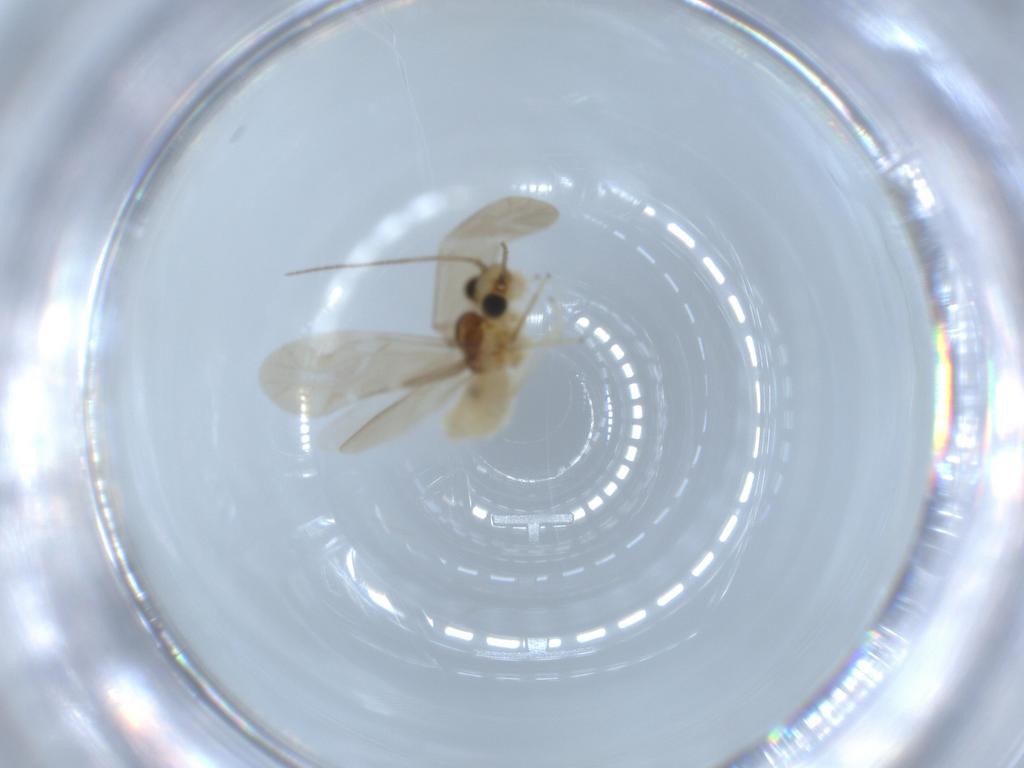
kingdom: Animalia
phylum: Arthropoda
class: Insecta
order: Psocodea
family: Caeciliusidae
